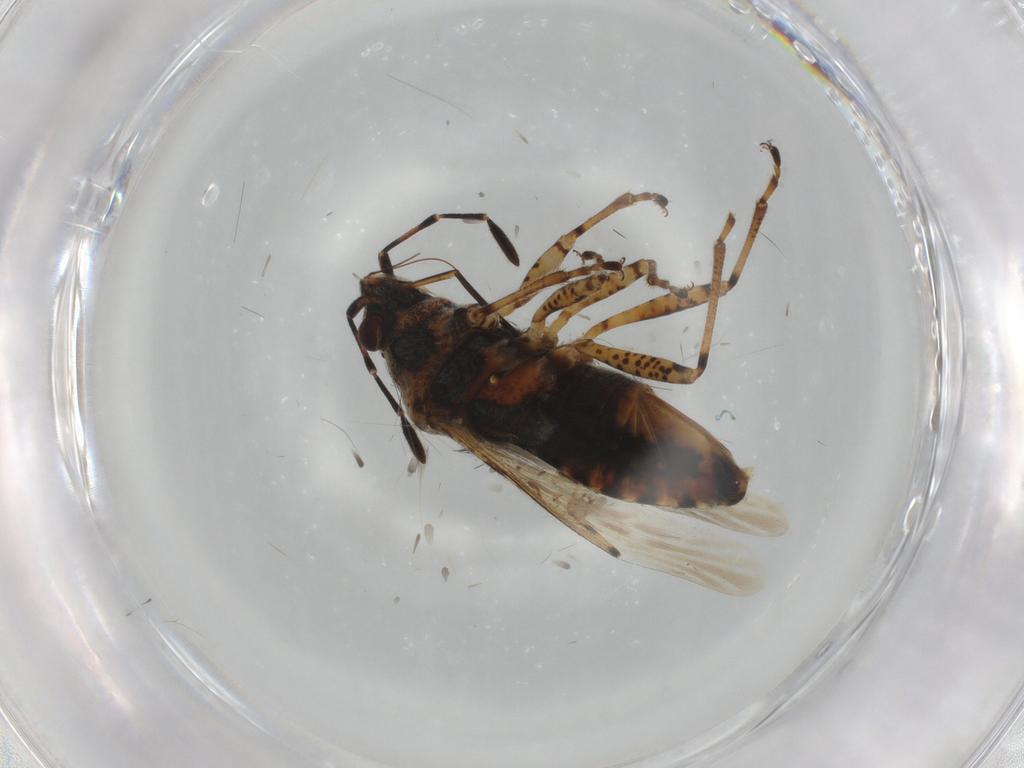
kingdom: Animalia
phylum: Arthropoda
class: Insecta
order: Hemiptera
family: Lygaeidae
